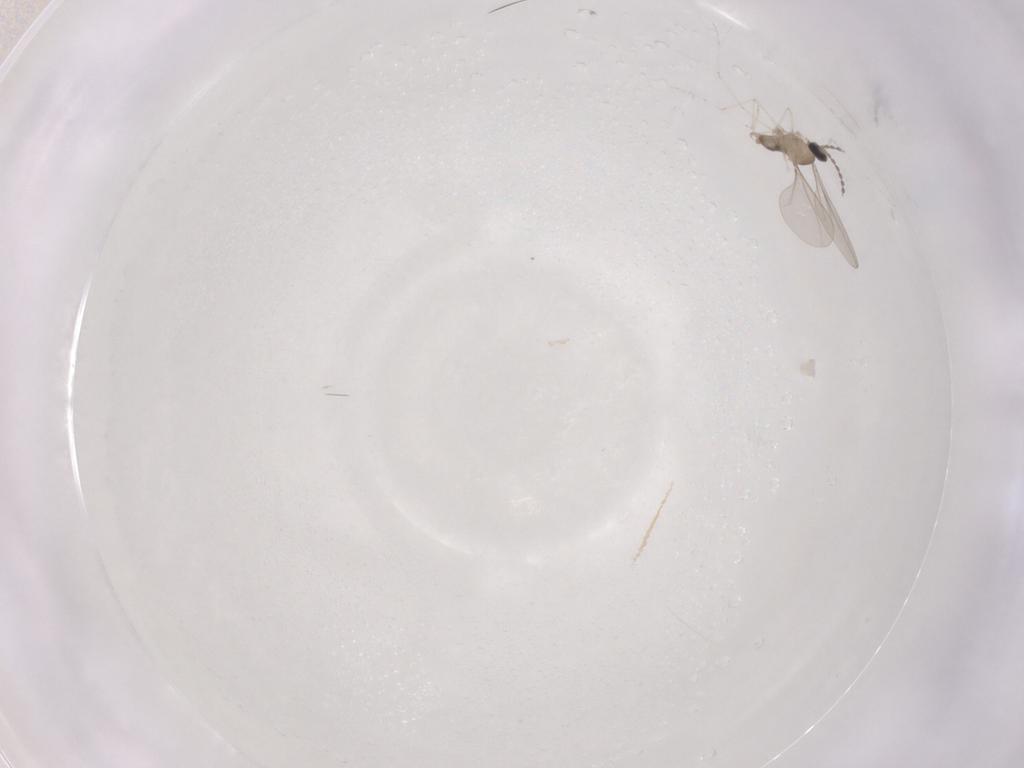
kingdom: Animalia
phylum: Arthropoda
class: Insecta
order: Diptera
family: Cecidomyiidae
